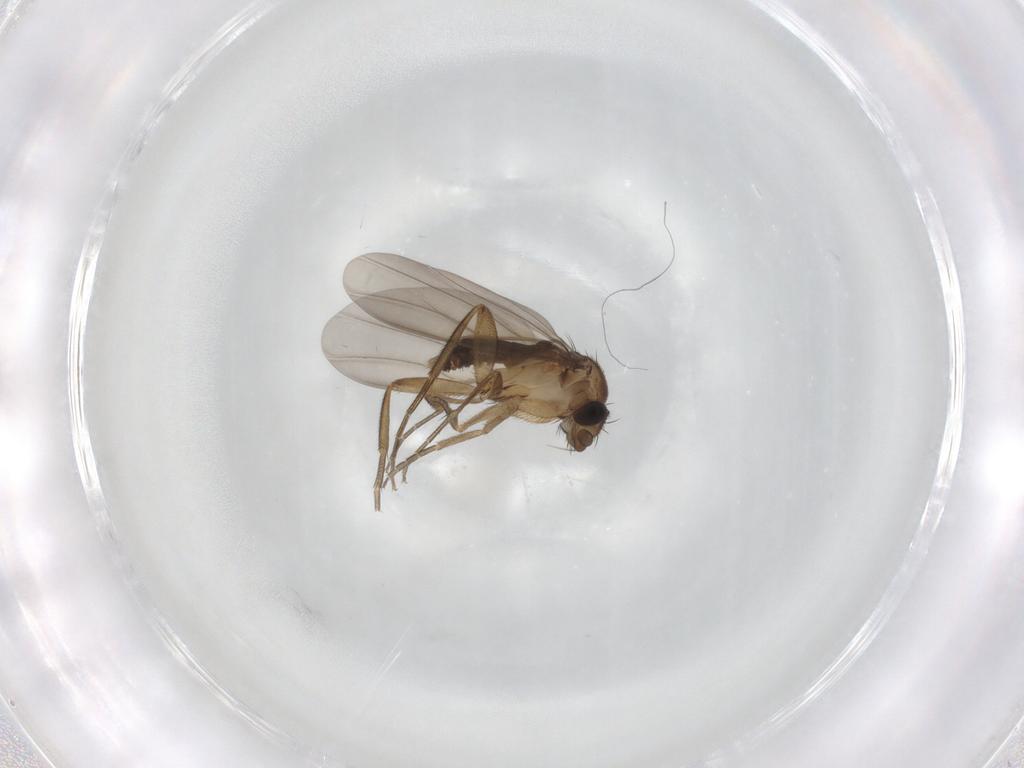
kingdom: Animalia
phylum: Arthropoda
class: Insecta
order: Diptera
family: Phoridae
